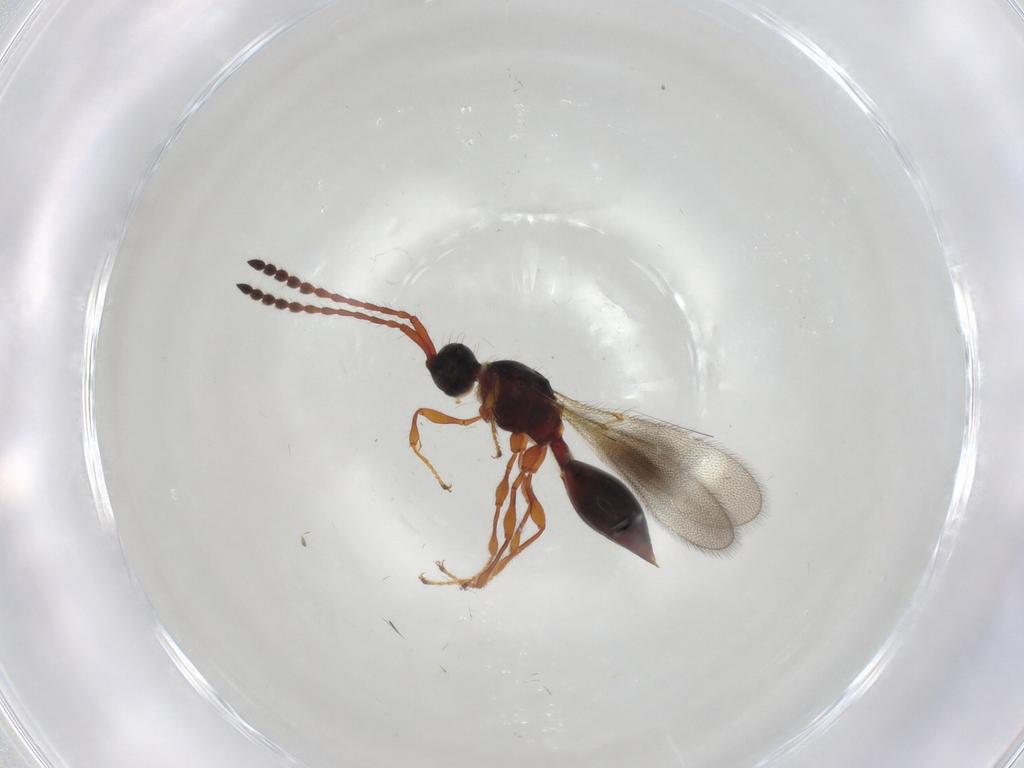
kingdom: Animalia
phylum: Arthropoda
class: Insecta
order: Hymenoptera
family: Diapriidae
